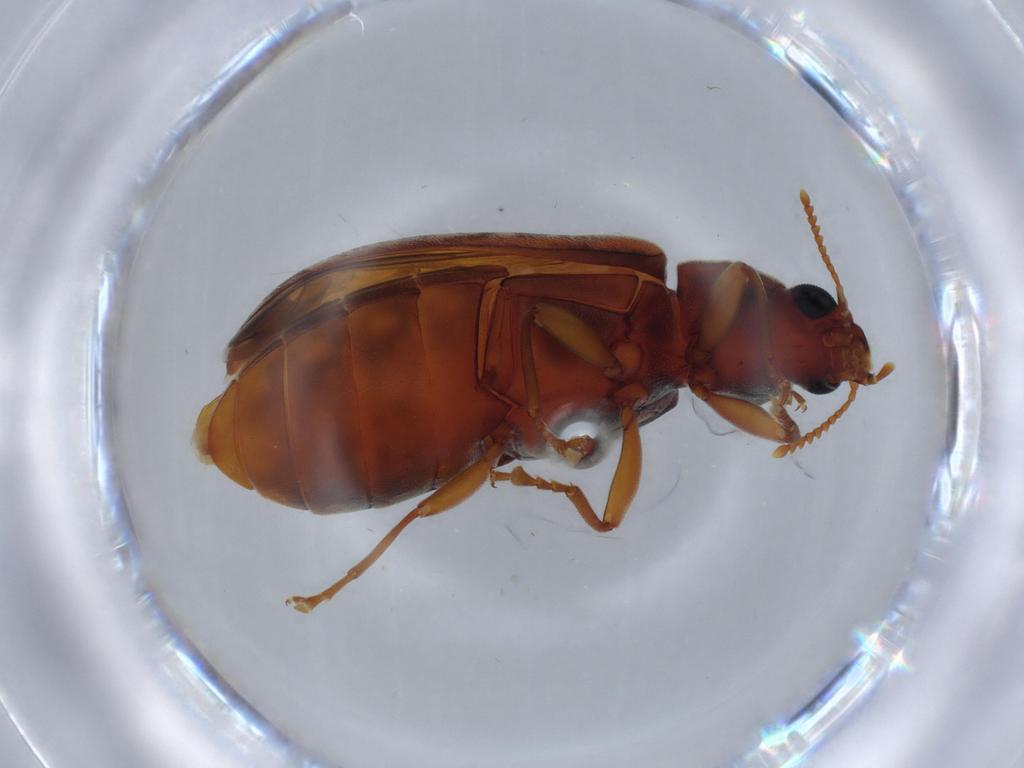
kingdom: Animalia
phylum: Arthropoda
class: Insecta
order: Coleoptera
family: Mycteridae
